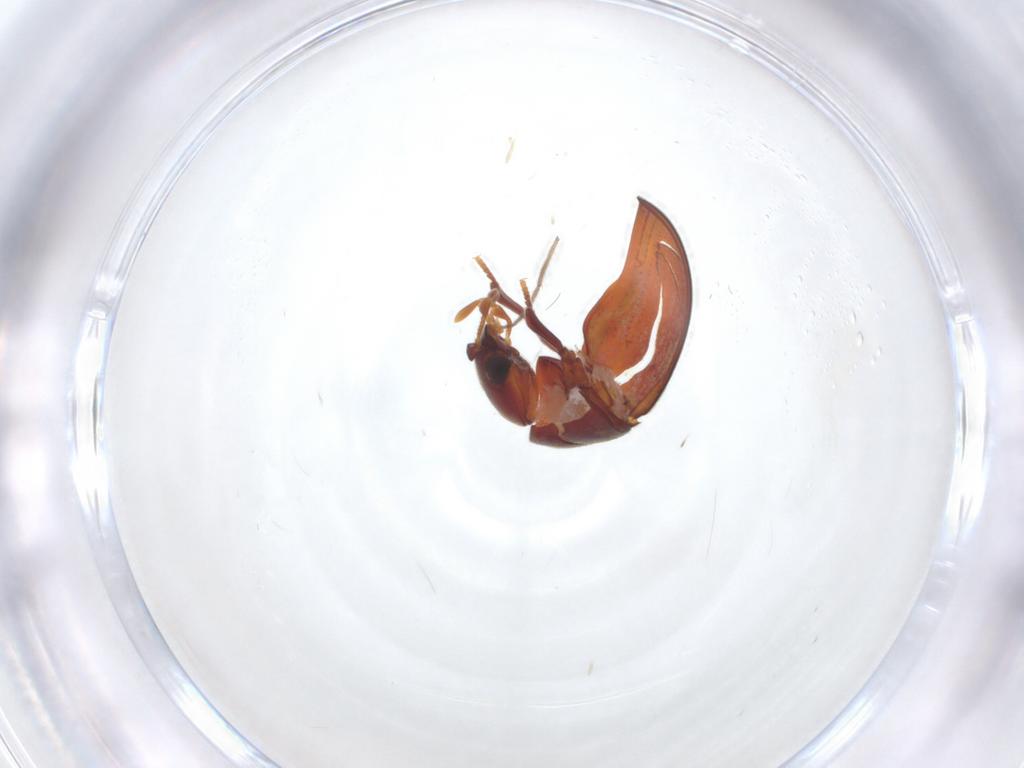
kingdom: Animalia
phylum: Arthropoda
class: Insecta
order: Coleoptera
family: Ptinidae
